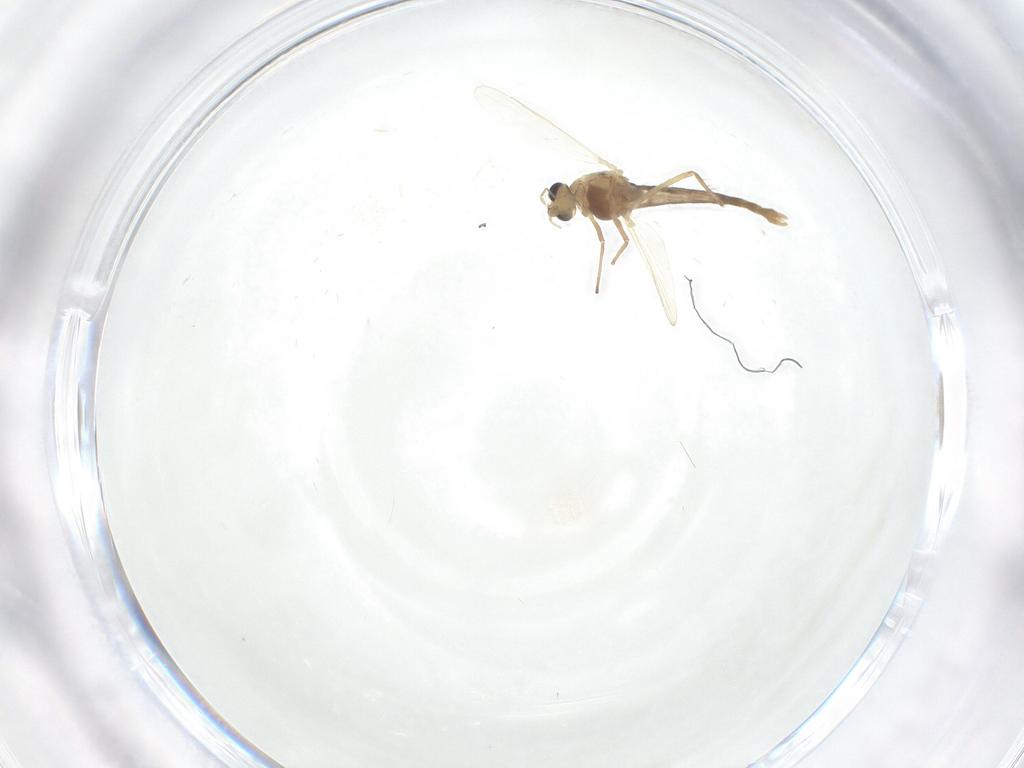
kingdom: Animalia
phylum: Arthropoda
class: Insecta
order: Diptera
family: Chironomidae
